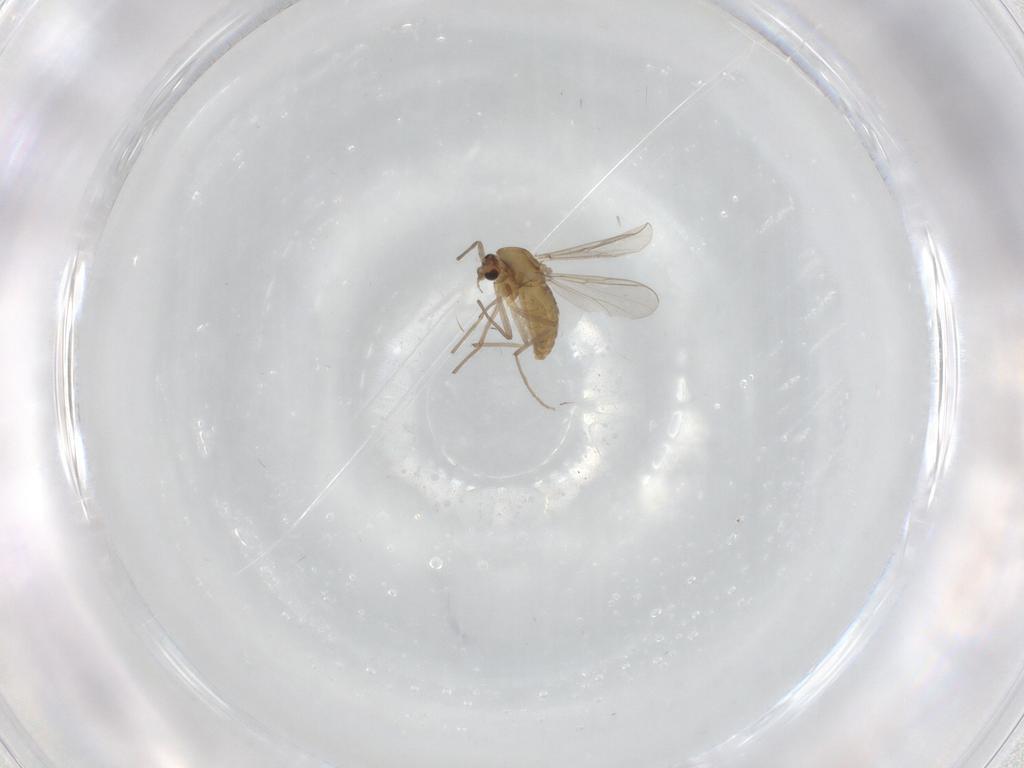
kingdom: Animalia
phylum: Arthropoda
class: Insecta
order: Diptera
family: Chironomidae
